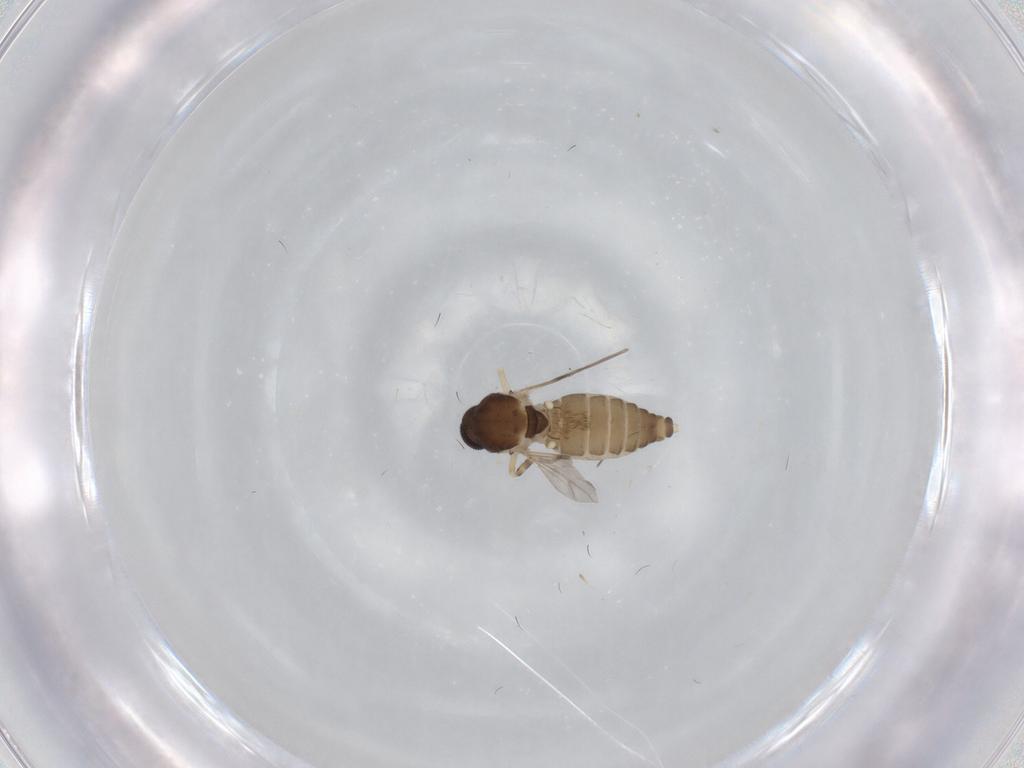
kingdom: Animalia
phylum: Arthropoda
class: Insecta
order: Diptera
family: Ceratopogonidae
